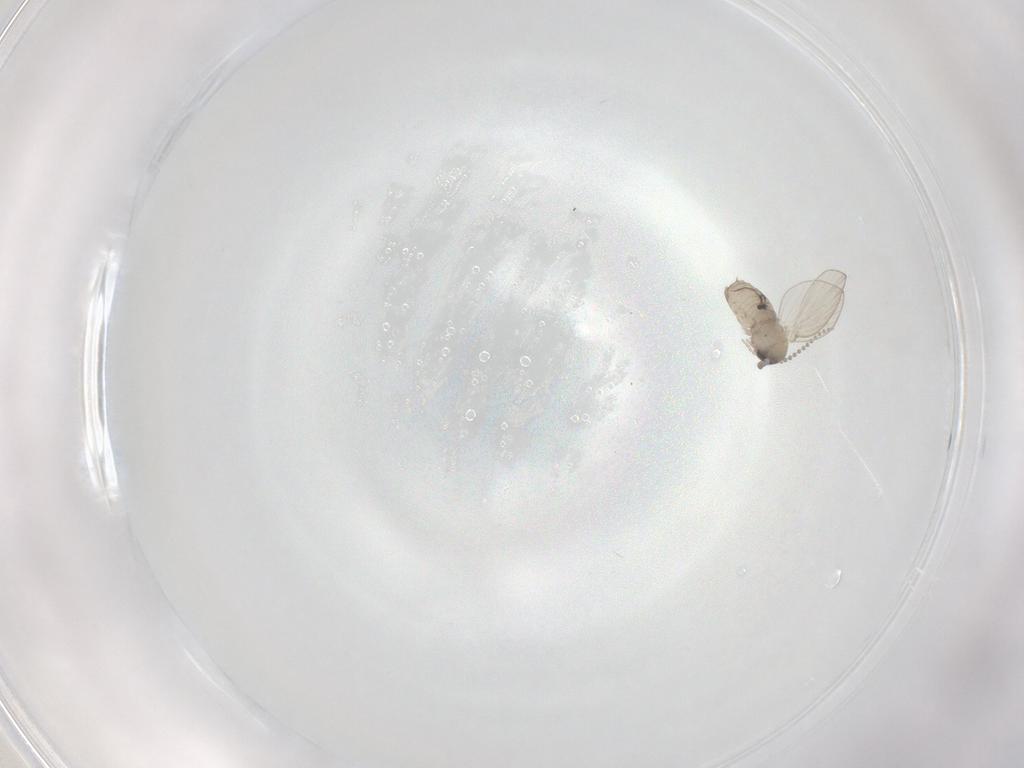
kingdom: Animalia
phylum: Arthropoda
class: Insecta
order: Diptera
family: Psychodidae
